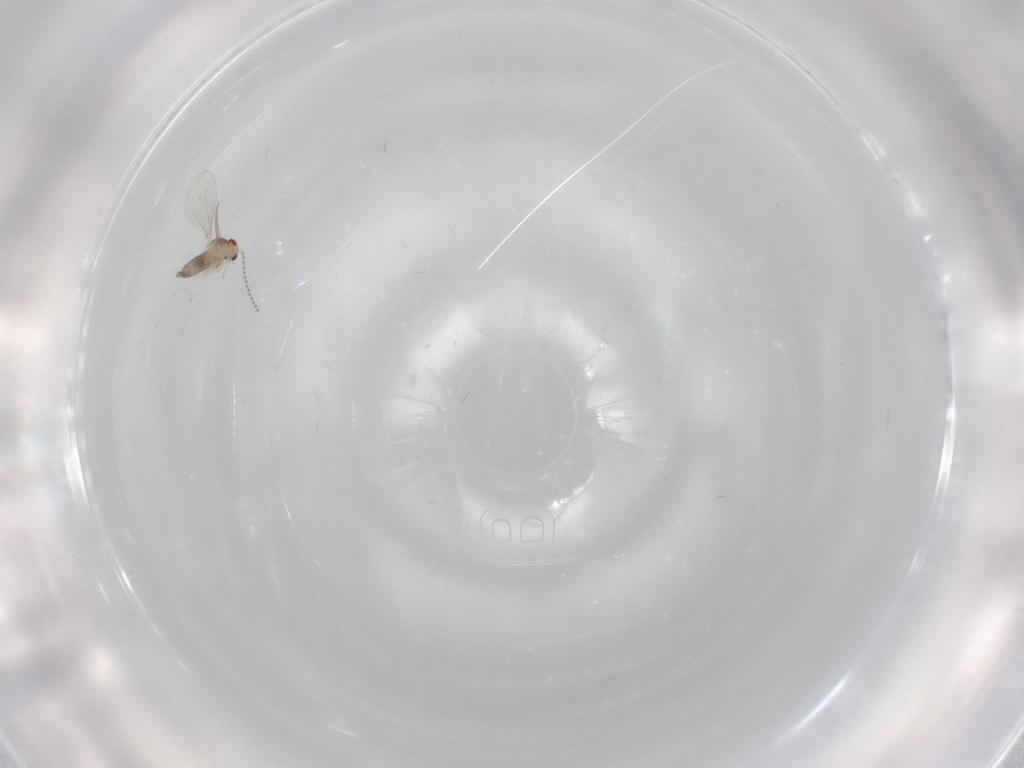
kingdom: Animalia
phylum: Arthropoda
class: Insecta
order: Diptera
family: Cecidomyiidae
